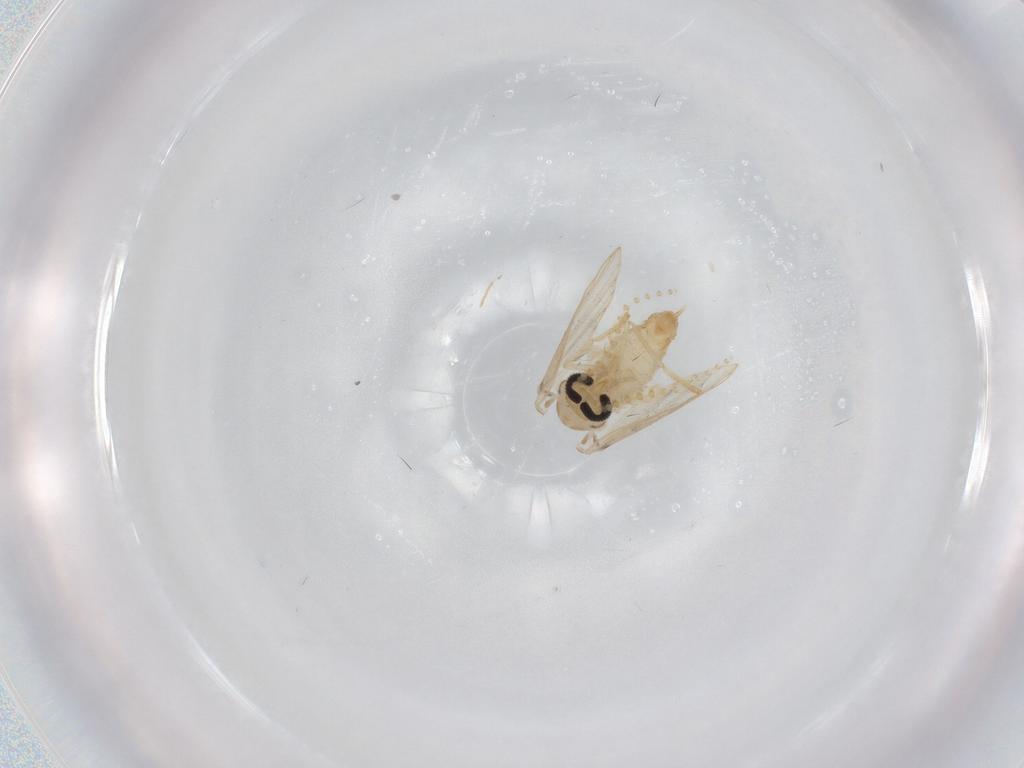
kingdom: Animalia
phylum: Arthropoda
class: Insecta
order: Diptera
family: Psychodidae
